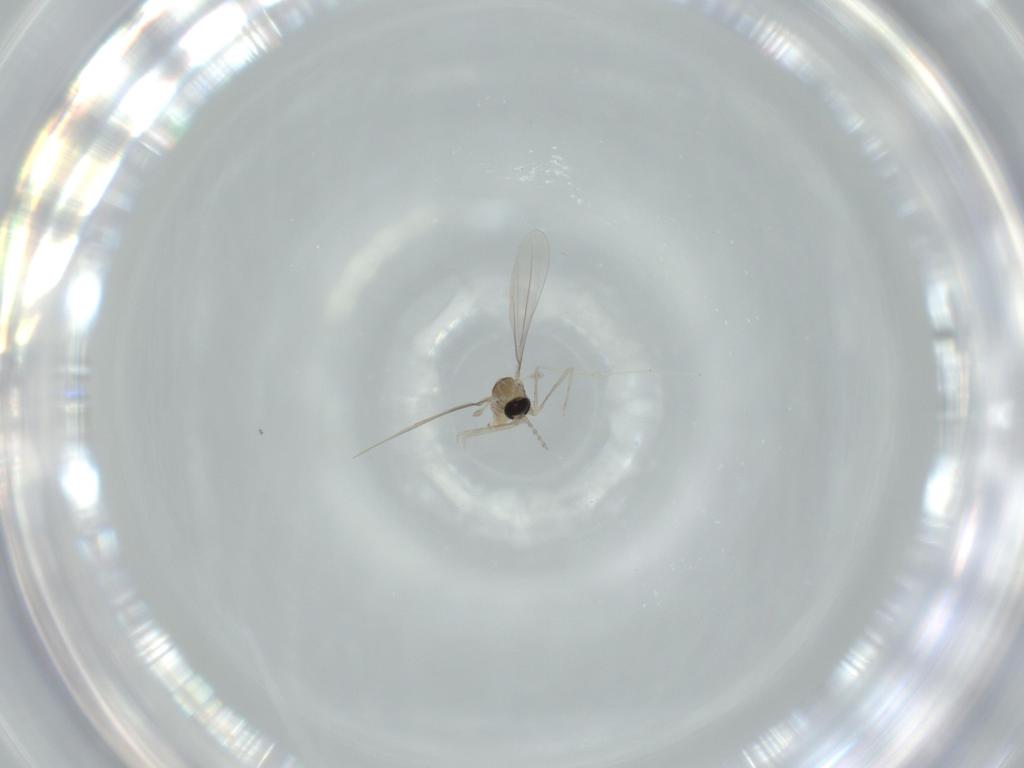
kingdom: Animalia
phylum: Arthropoda
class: Insecta
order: Diptera
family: Cecidomyiidae
